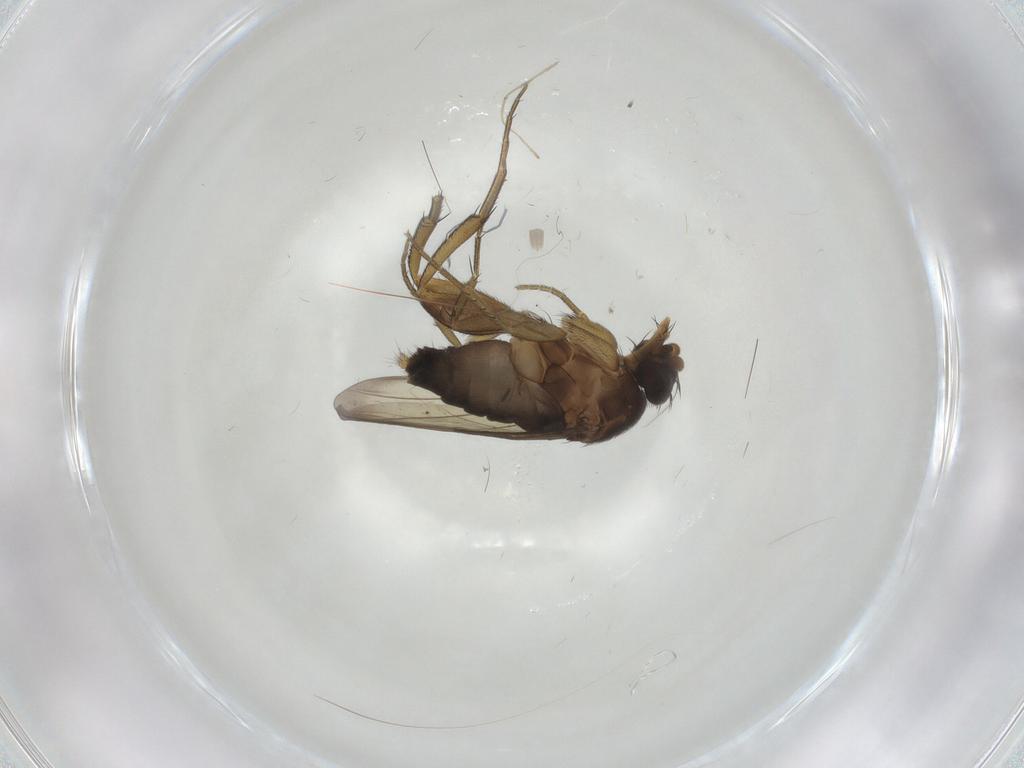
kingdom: Animalia
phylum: Arthropoda
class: Insecta
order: Diptera
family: Phoridae
